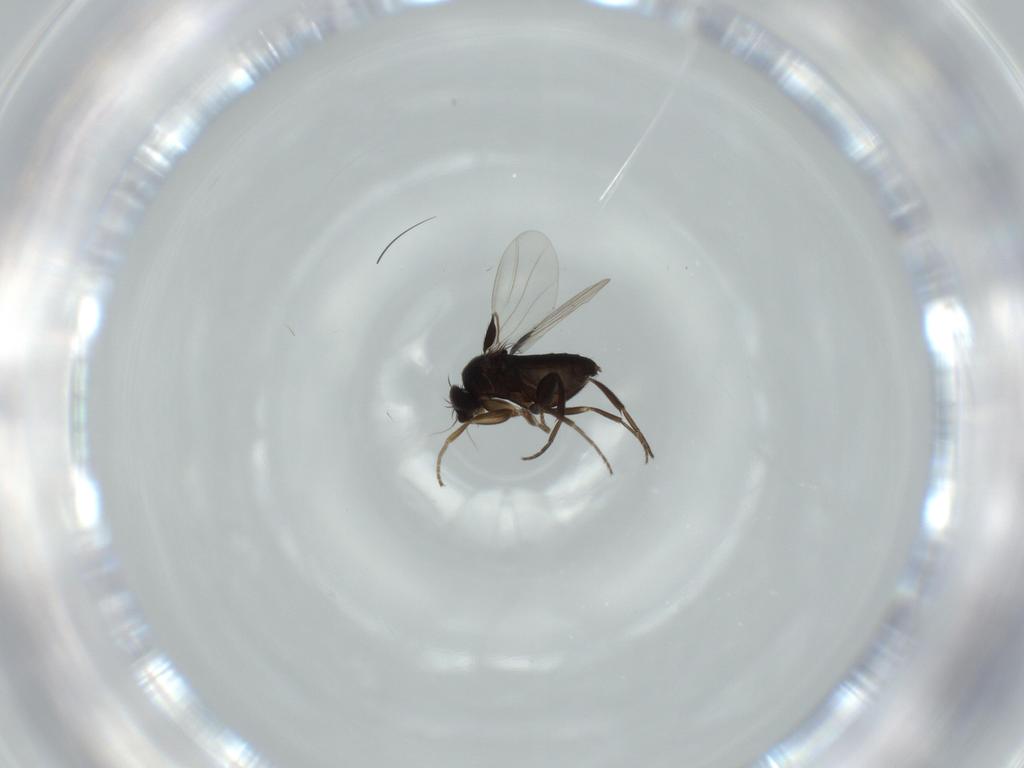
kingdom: Animalia
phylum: Arthropoda
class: Insecta
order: Diptera
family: Phoridae
